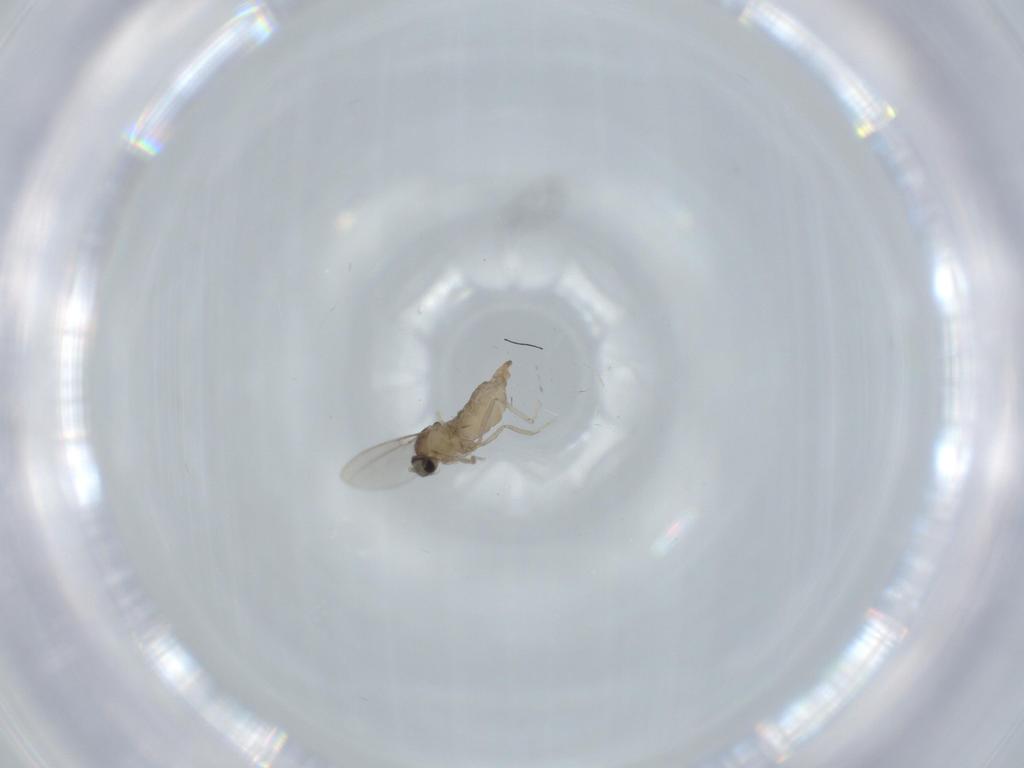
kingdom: Animalia
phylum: Arthropoda
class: Insecta
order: Diptera
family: Cecidomyiidae
